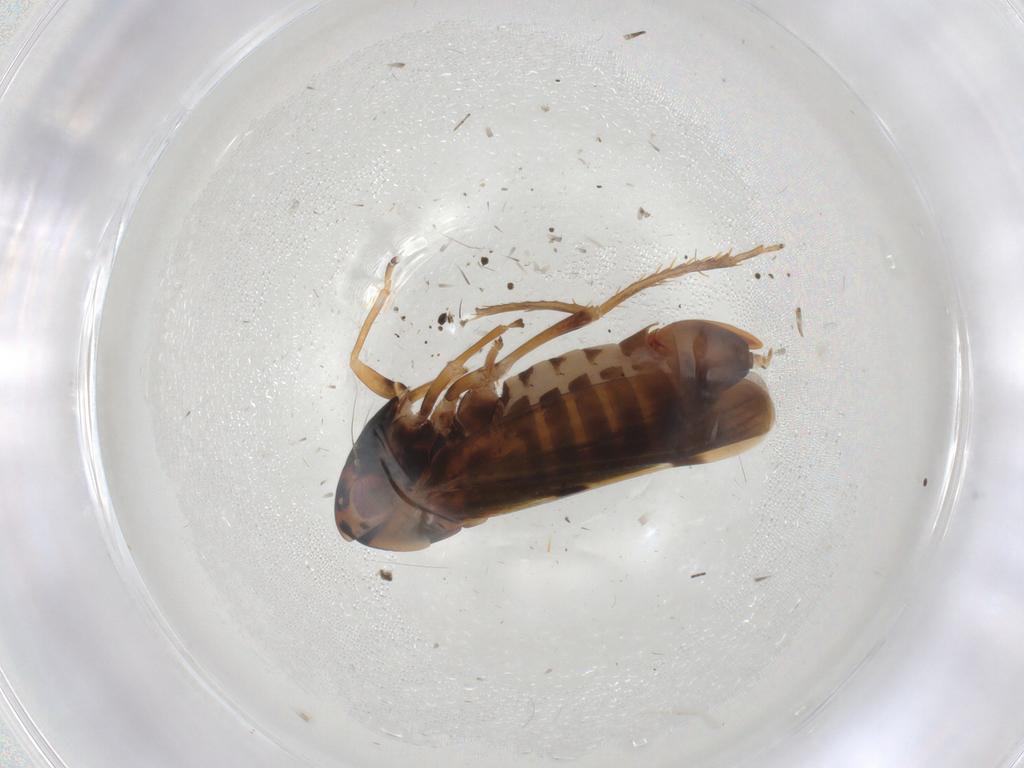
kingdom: Animalia
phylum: Arthropoda
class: Insecta
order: Hemiptera
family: Cicadellidae
